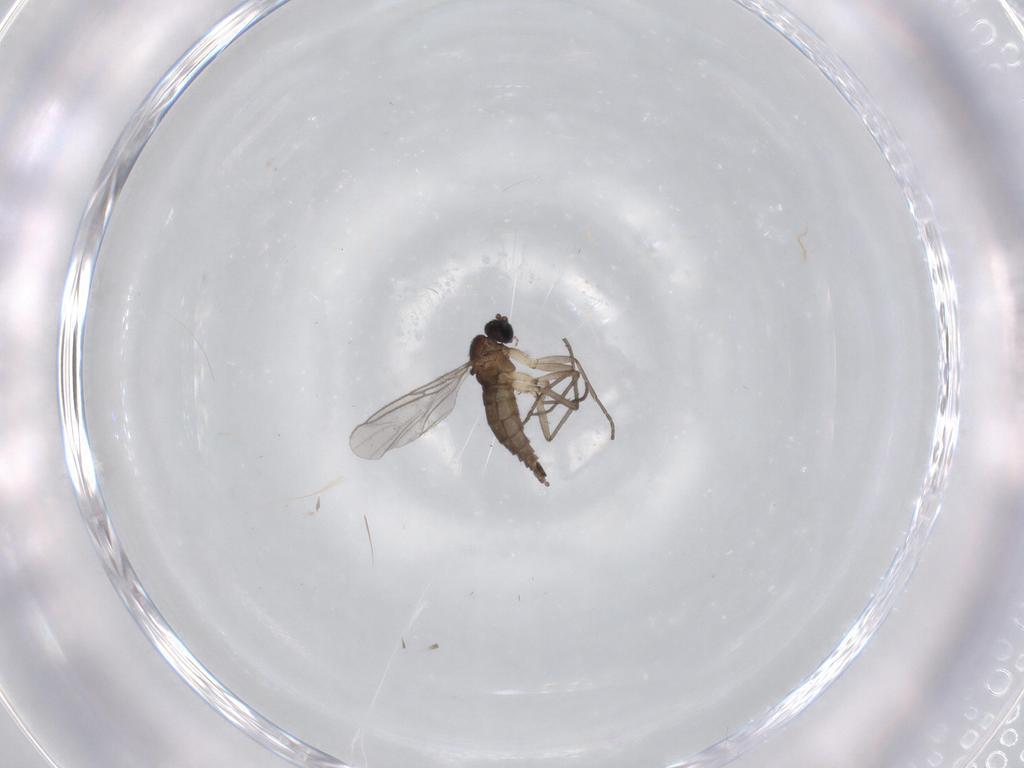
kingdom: Animalia
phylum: Arthropoda
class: Insecta
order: Diptera
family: Sciaridae
